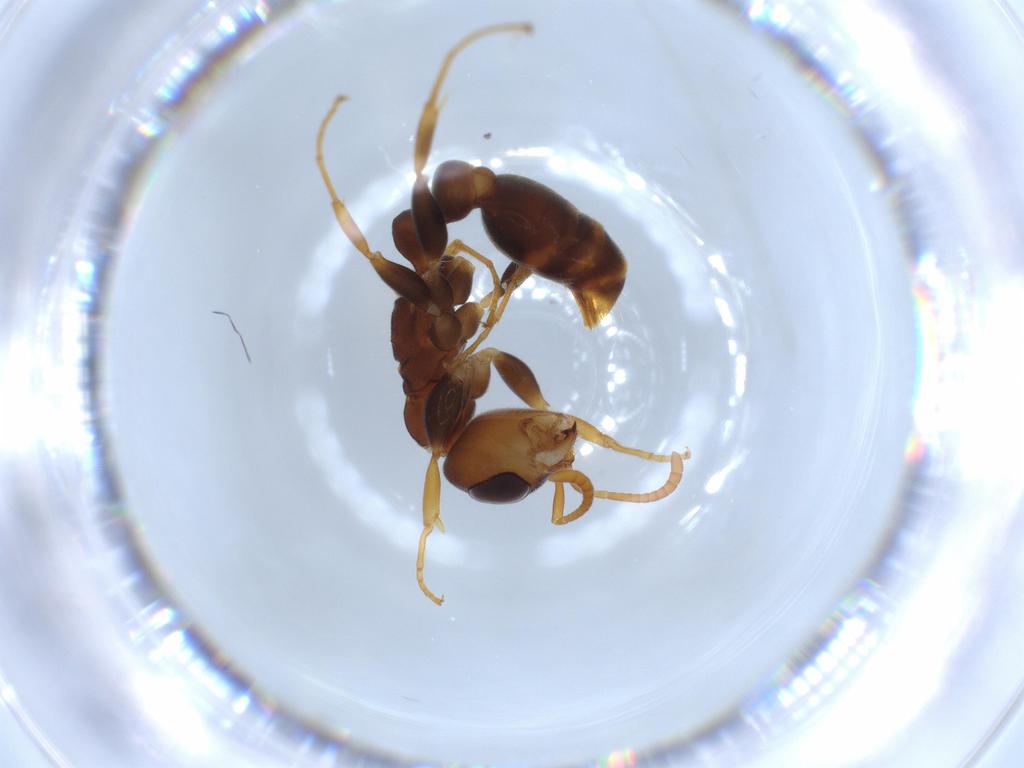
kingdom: Animalia
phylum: Arthropoda
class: Insecta
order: Hymenoptera
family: Formicidae
